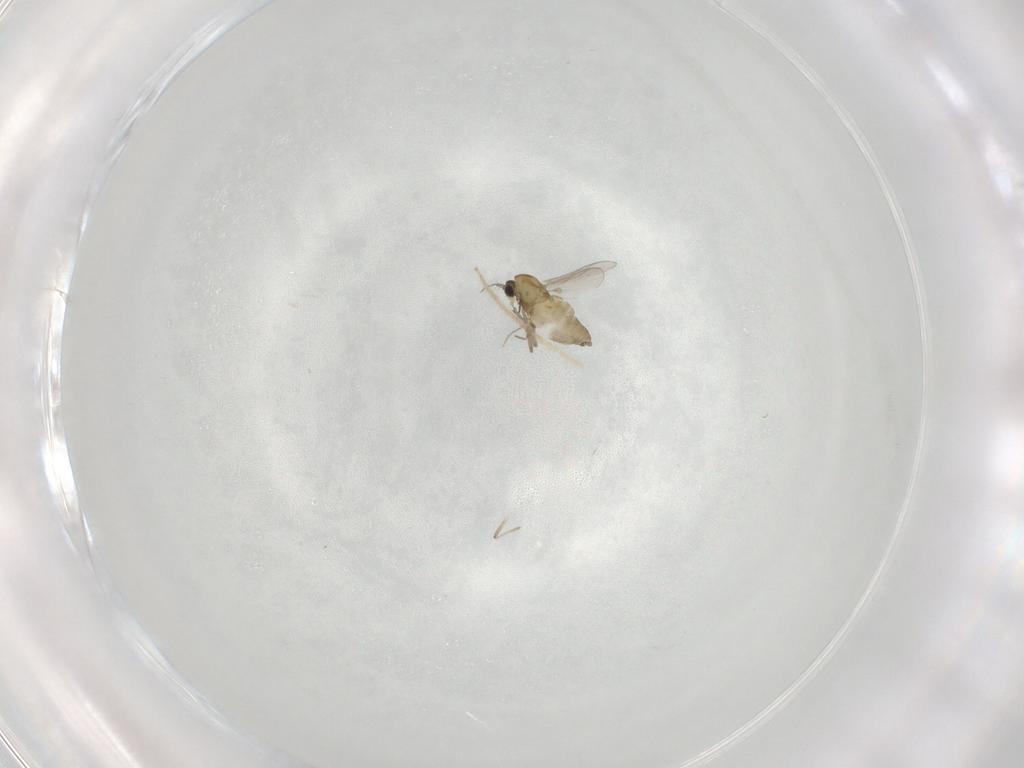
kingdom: Animalia
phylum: Arthropoda
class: Insecta
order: Diptera
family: Chironomidae
